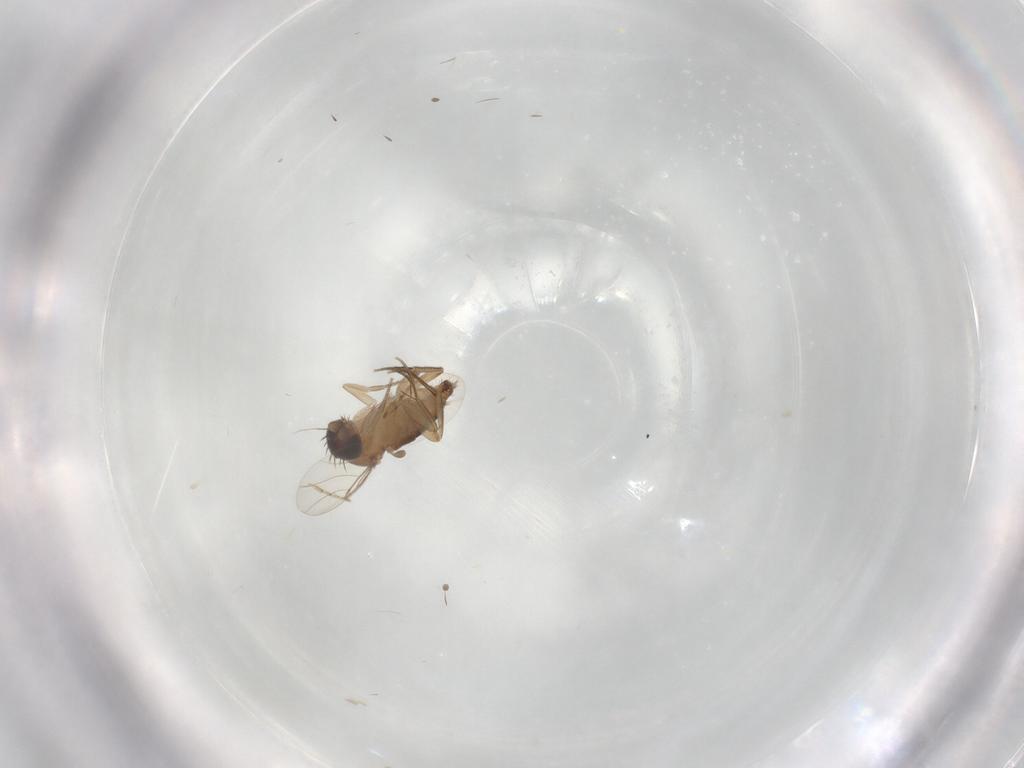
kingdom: Animalia
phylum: Arthropoda
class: Insecta
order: Diptera
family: Phoridae
